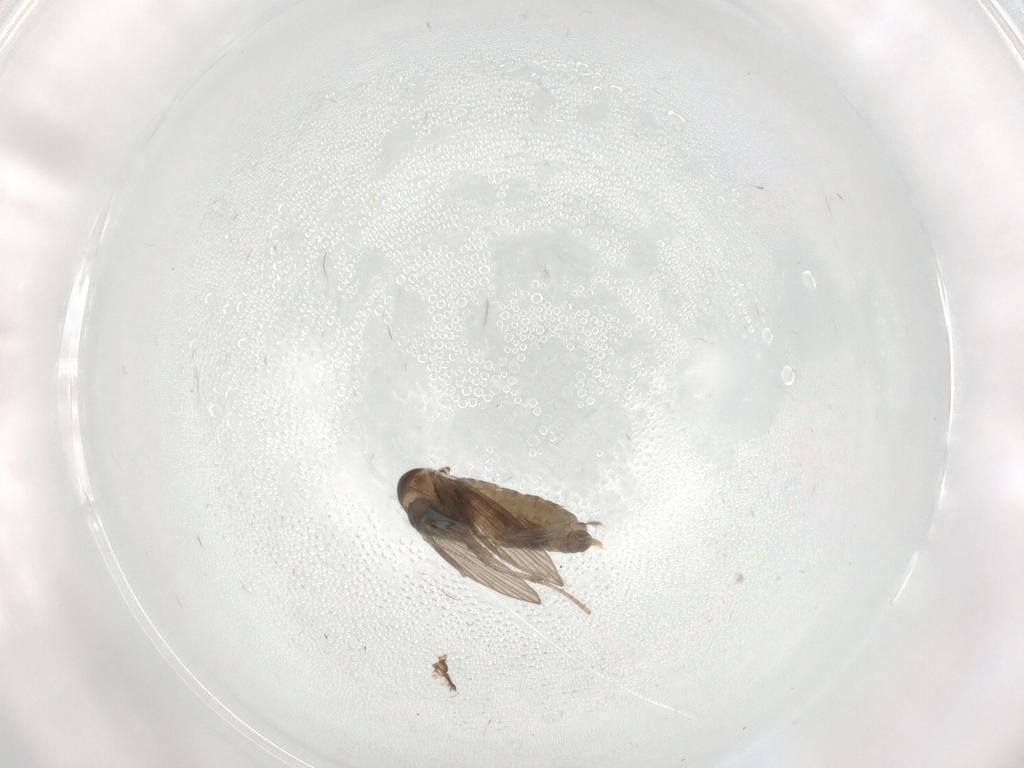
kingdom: Animalia
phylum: Arthropoda
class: Insecta
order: Diptera
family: Psychodidae
